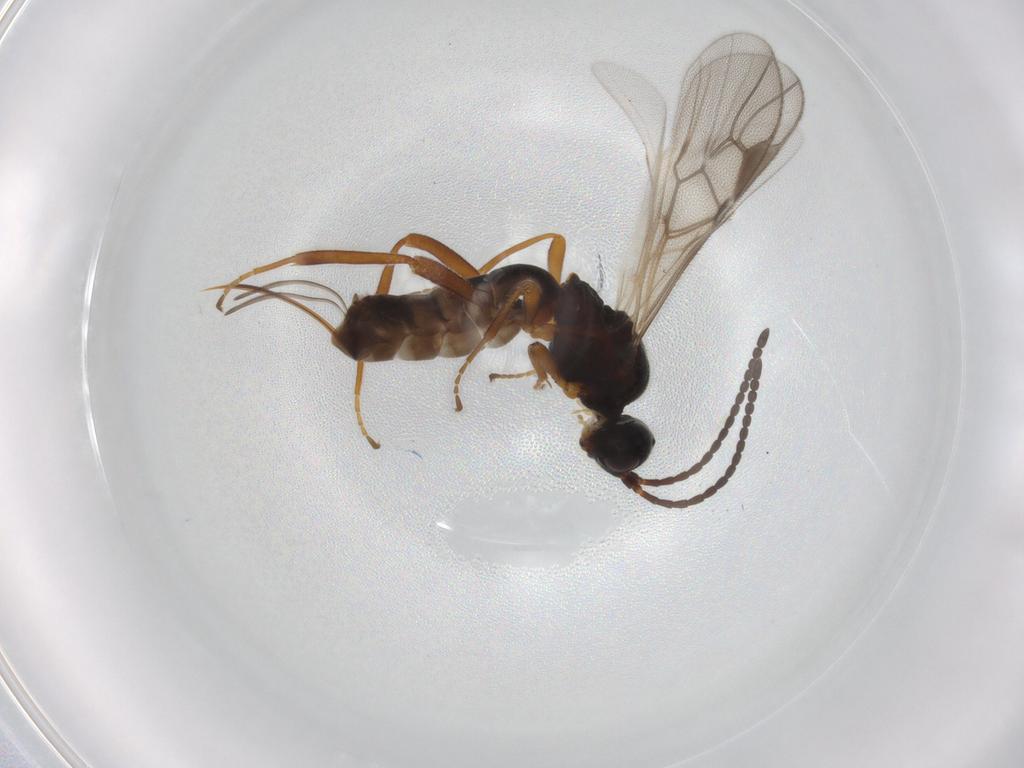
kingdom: Animalia
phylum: Arthropoda
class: Insecta
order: Hymenoptera
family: Braconidae
